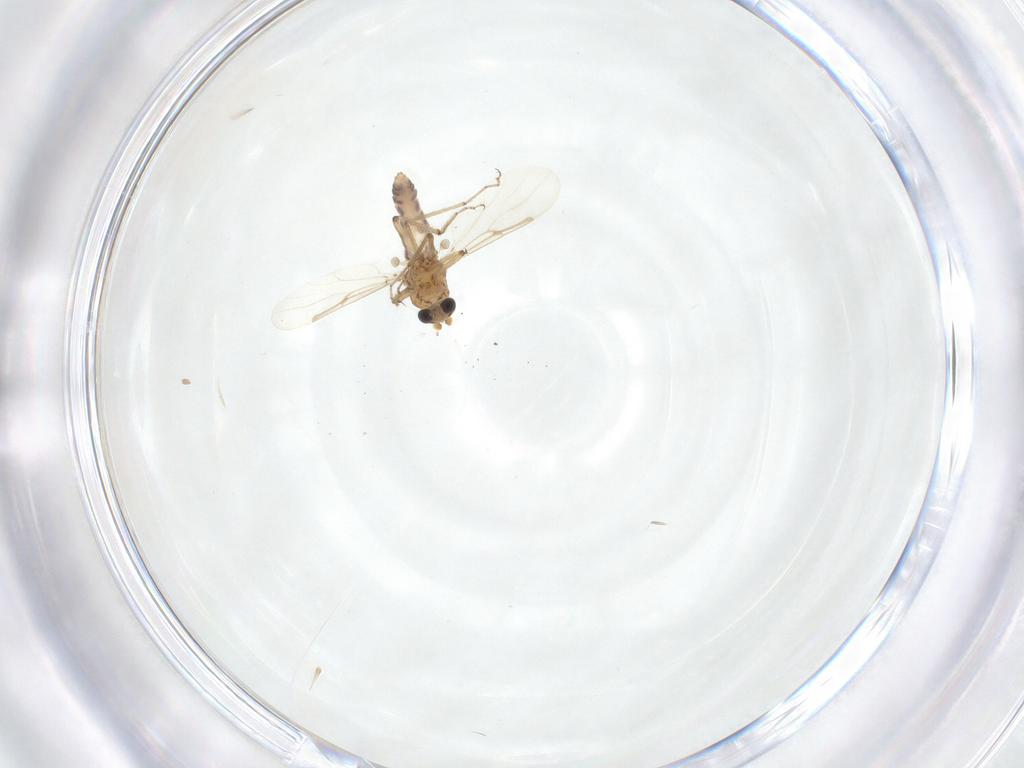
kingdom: Animalia
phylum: Arthropoda
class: Insecta
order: Diptera
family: Ceratopogonidae
